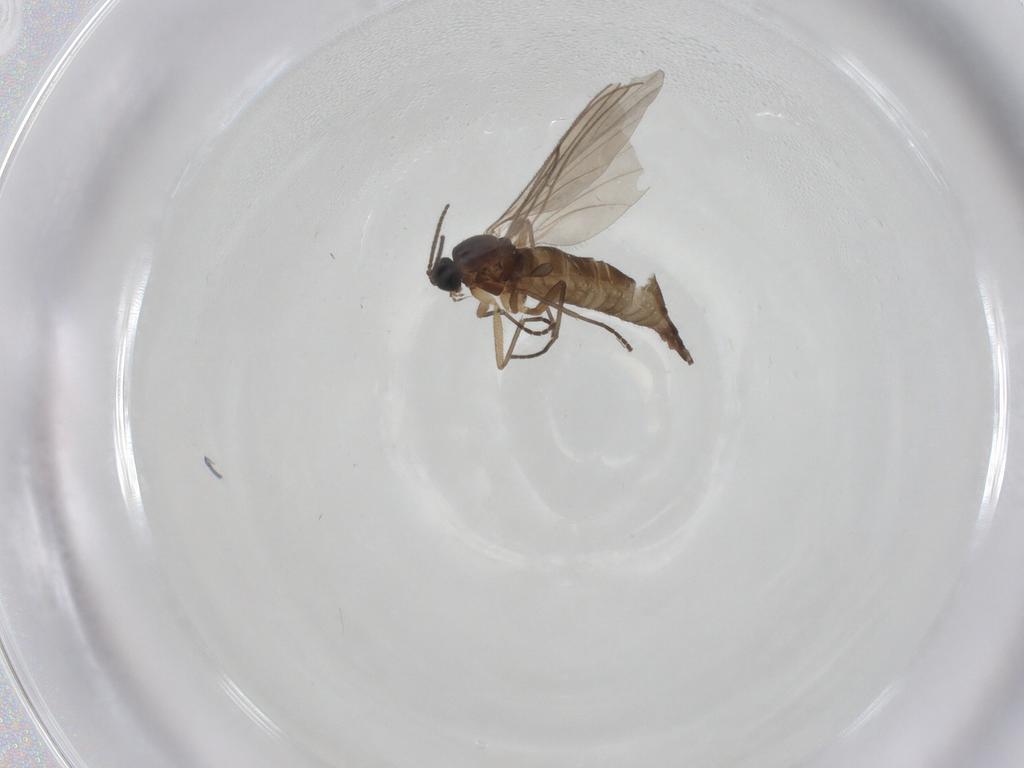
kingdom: Animalia
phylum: Arthropoda
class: Insecta
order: Diptera
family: Sciaridae
